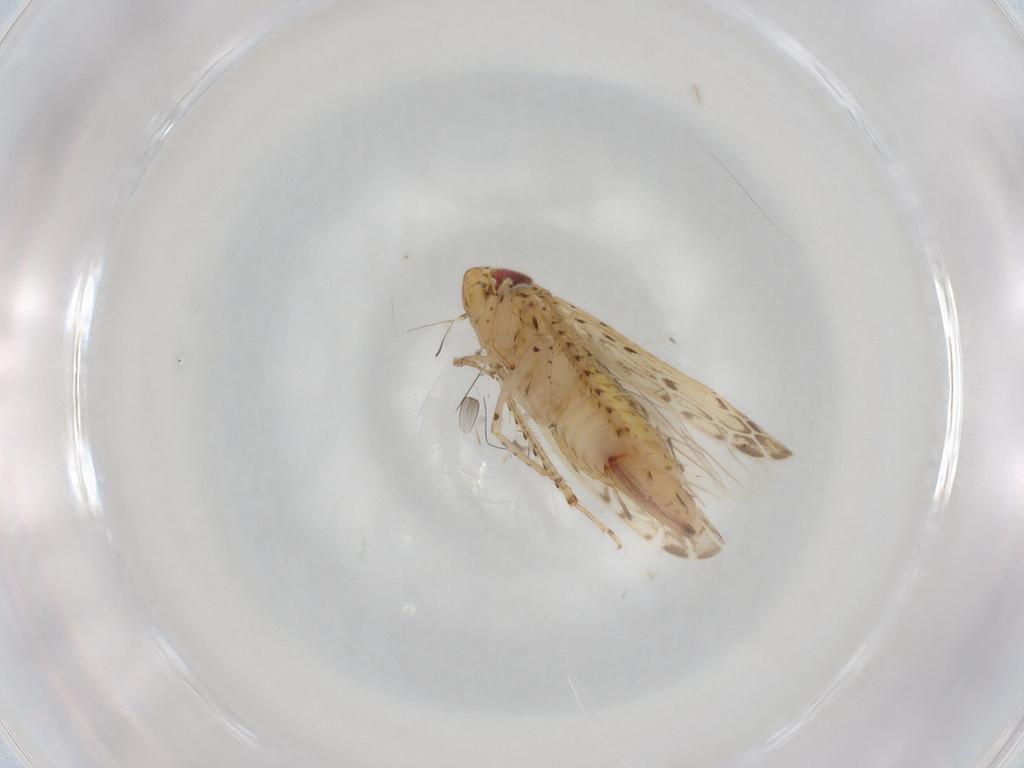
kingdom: Animalia
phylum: Arthropoda
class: Insecta
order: Hemiptera
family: Cicadellidae
